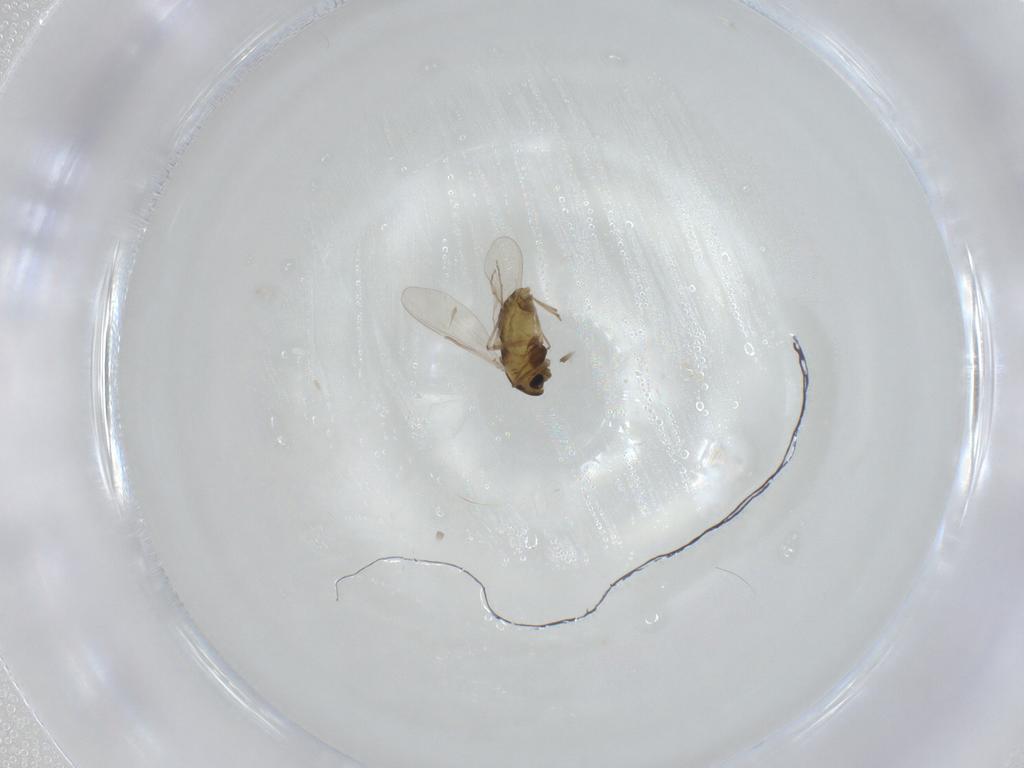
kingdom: Animalia
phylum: Arthropoda
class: Insecta
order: Diptera
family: Chironomidae
